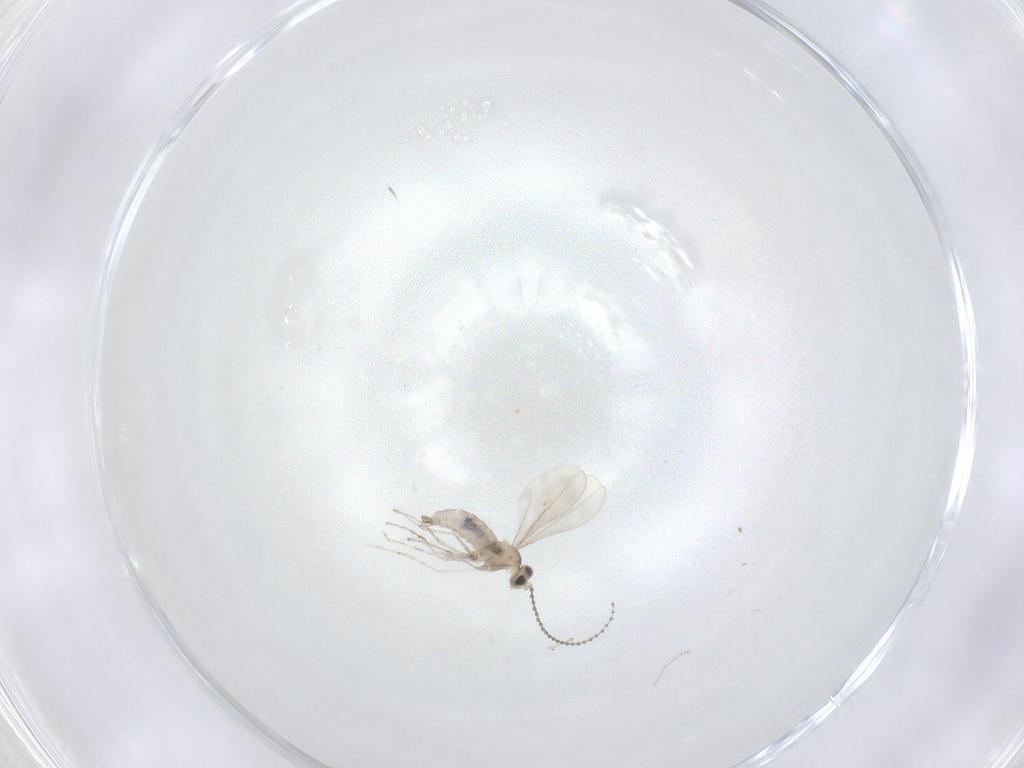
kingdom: Animalia
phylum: Arthropoda
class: Insecta
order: Diptera
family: Cecidomyiidae
